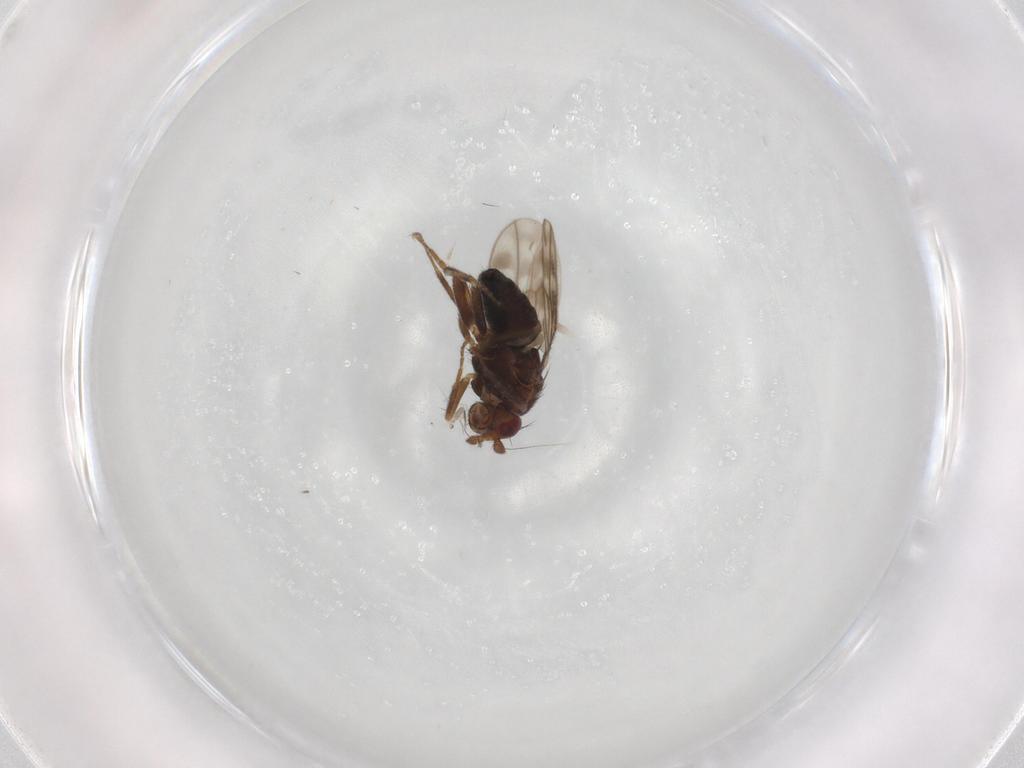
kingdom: Animalia
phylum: Arthropoda
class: Insecta
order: Diptera
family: Sphaeroceridae
